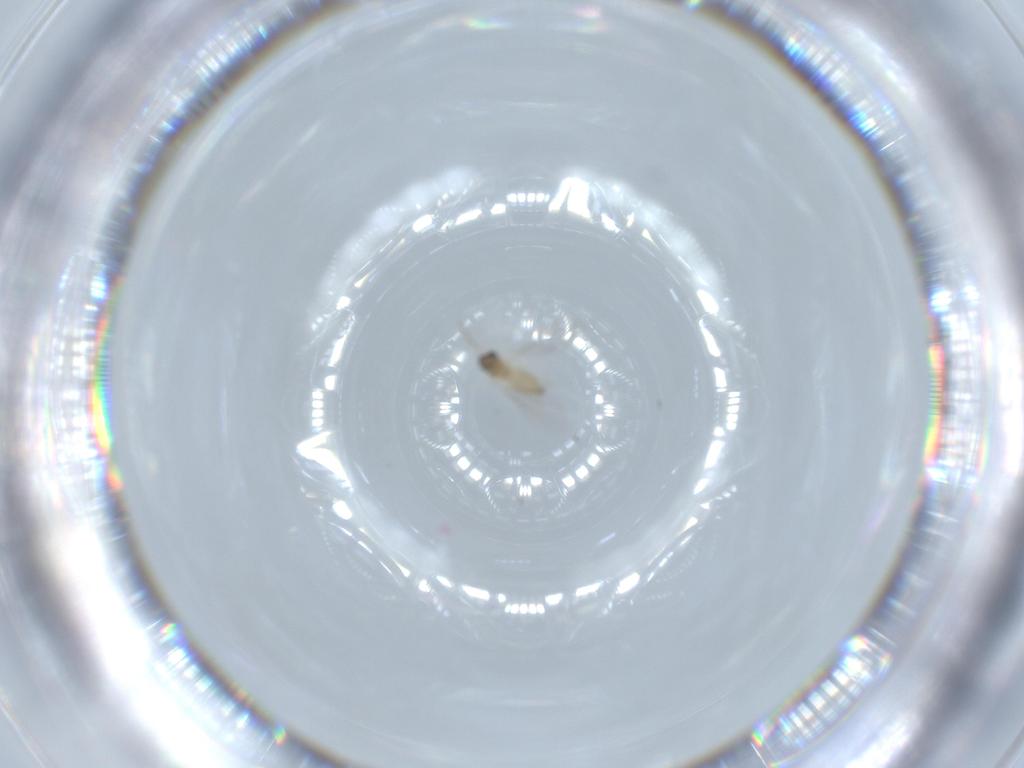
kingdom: Animalia
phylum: Arthropoda
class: Insecta
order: Diptera
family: Cecidomyiidae
